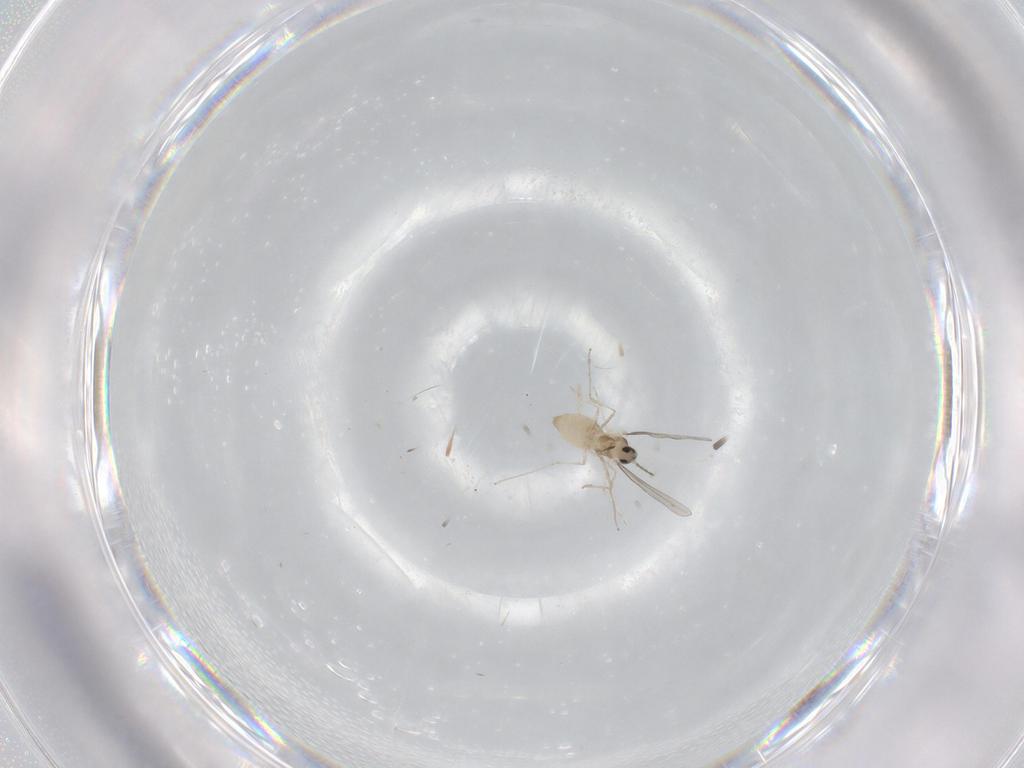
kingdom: Animalia
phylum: Arthropoda
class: Insecta
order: Diptera
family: Cecidomyiidae
